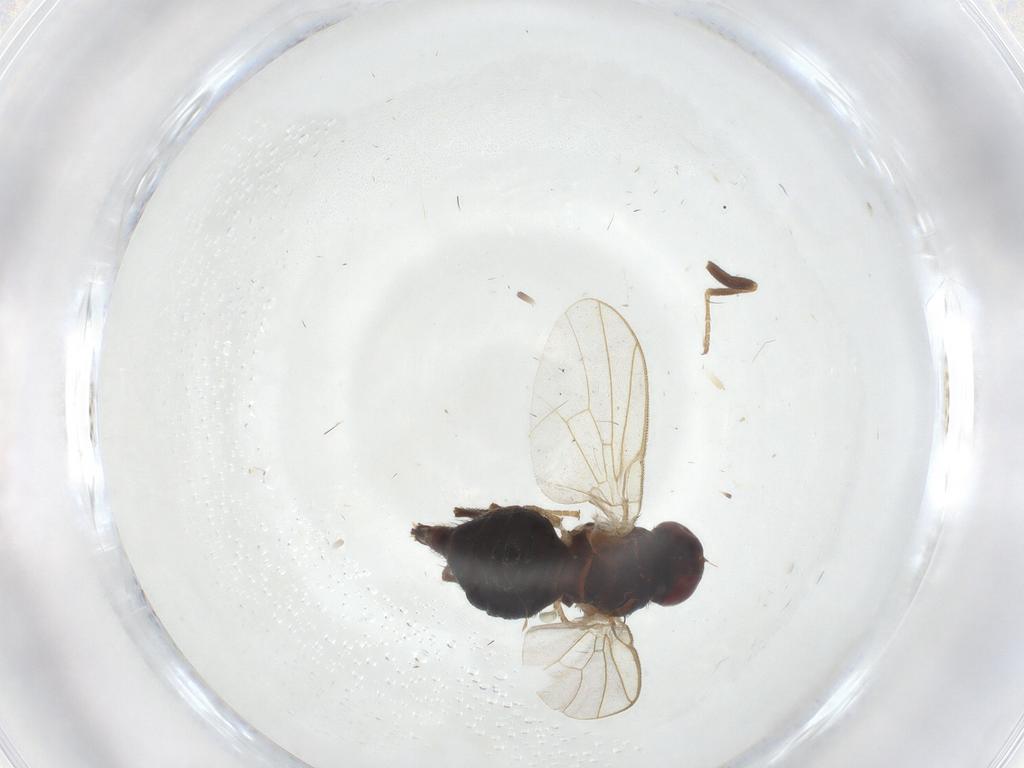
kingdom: Animalia
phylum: Arthropoda
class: Insecta
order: Diptera
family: Agromyzidae
